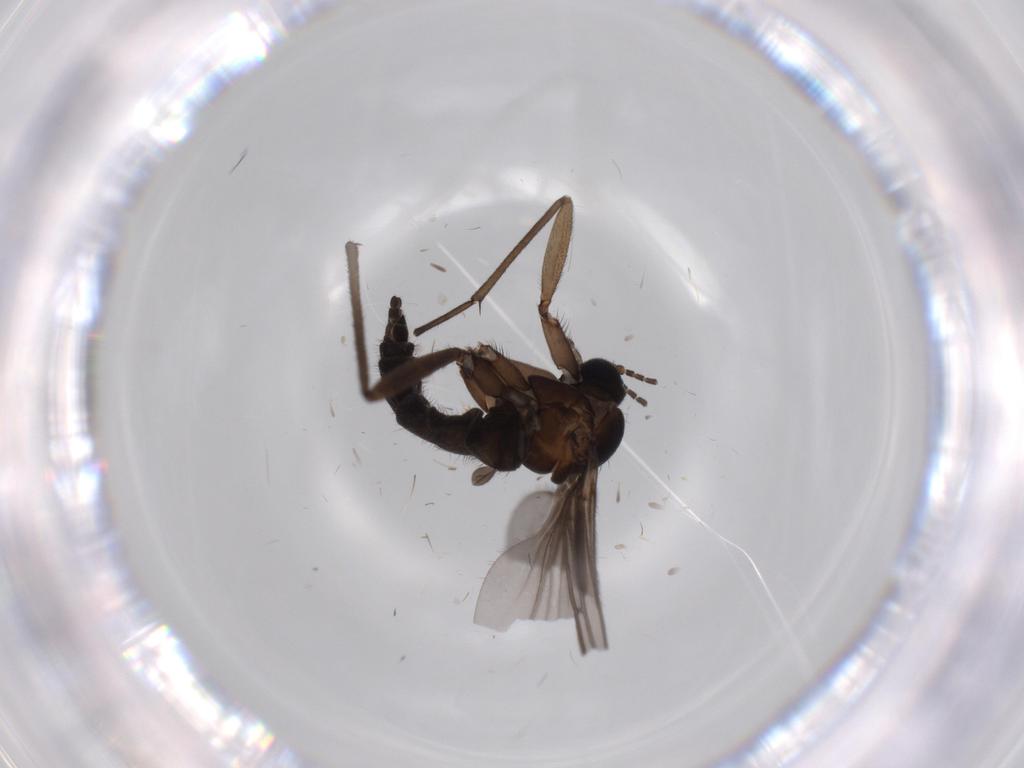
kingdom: Animalia
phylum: Arthropoda
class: Insecta
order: Diptera
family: Sciaridae
